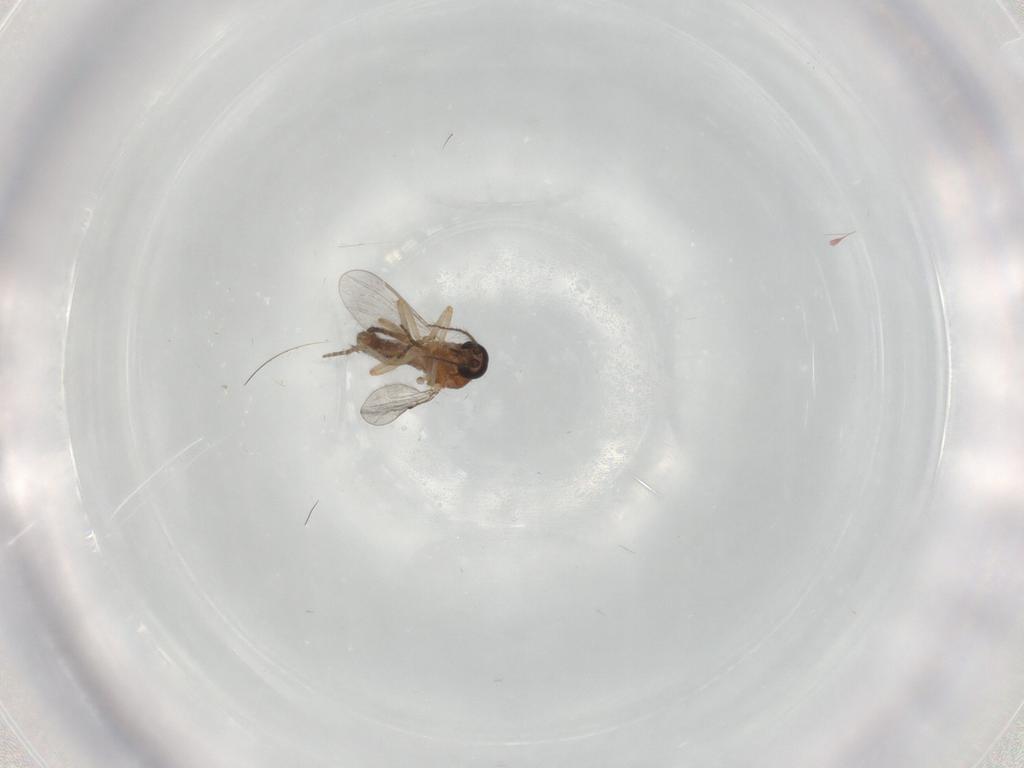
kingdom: Animalia
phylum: Arthropoda
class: Insecta
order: Diptera
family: Ceratopogonidae
